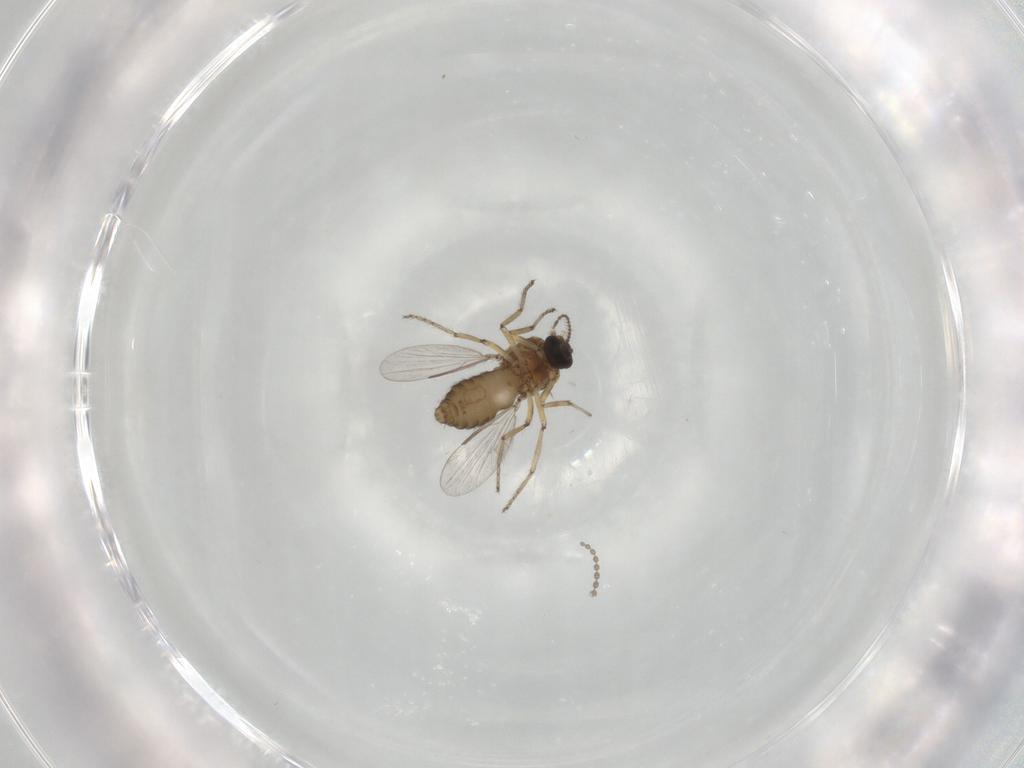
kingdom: Animalia
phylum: Arthropoda
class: Insecta
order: Diptera
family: Ceratopogonidae
